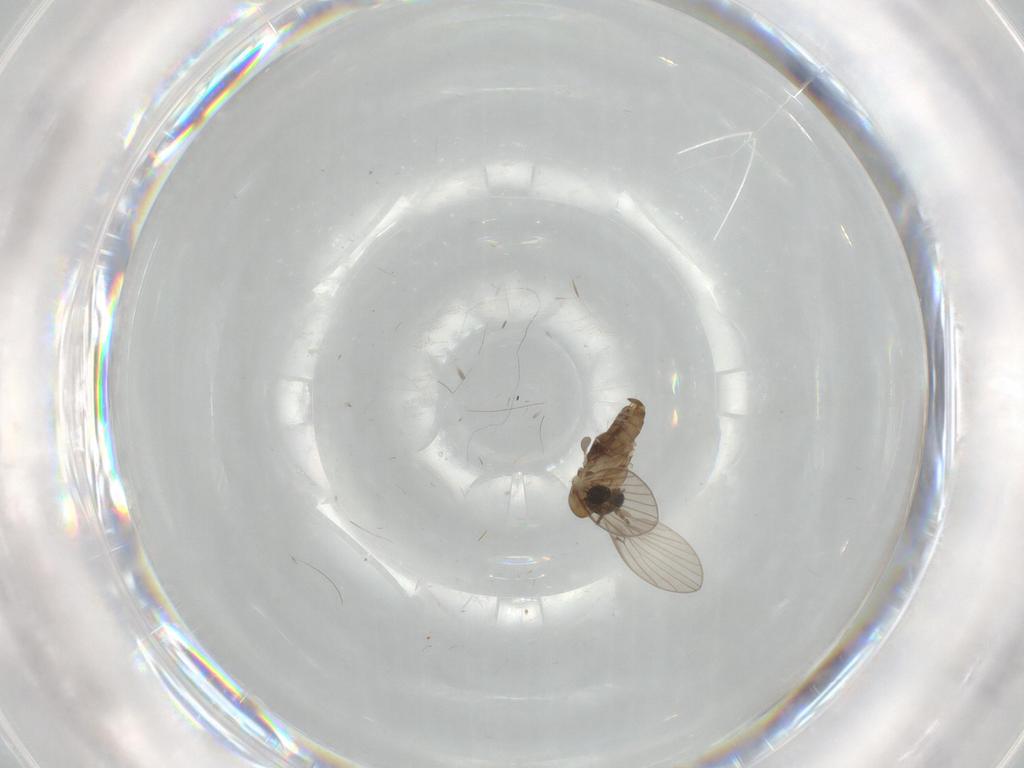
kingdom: Animalia
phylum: Arthropoda
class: Insecta
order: Diptera
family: Psychodidae
